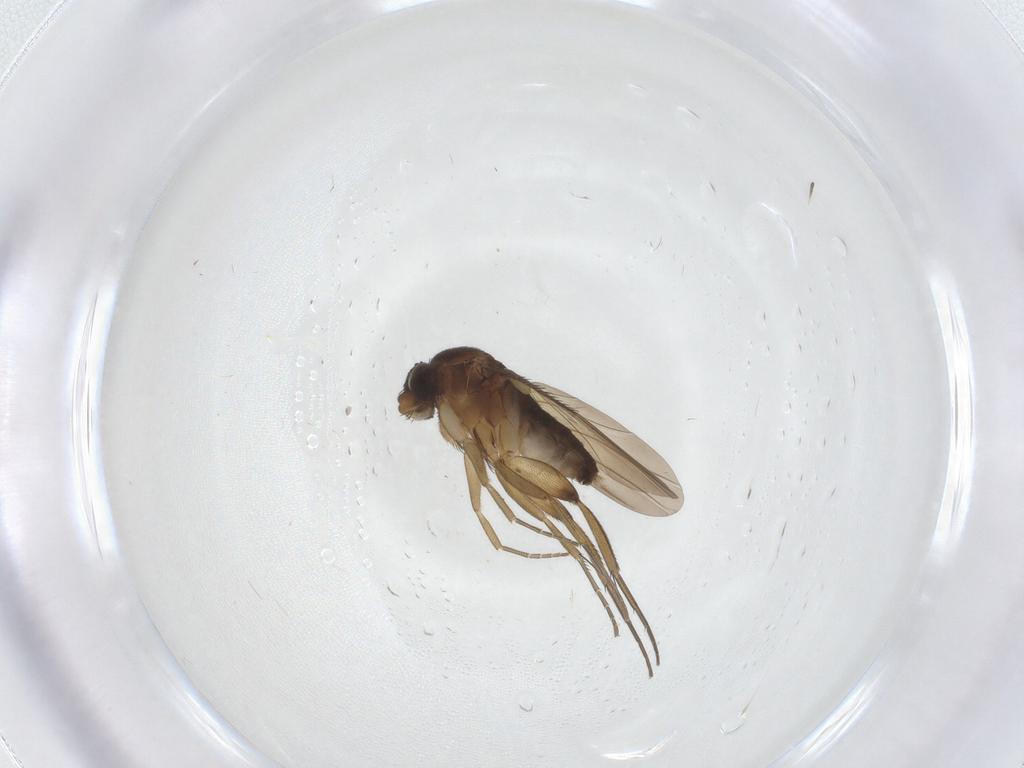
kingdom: Animalia
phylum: Arthropoda
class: Insecta
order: Diptera
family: Phoridae
